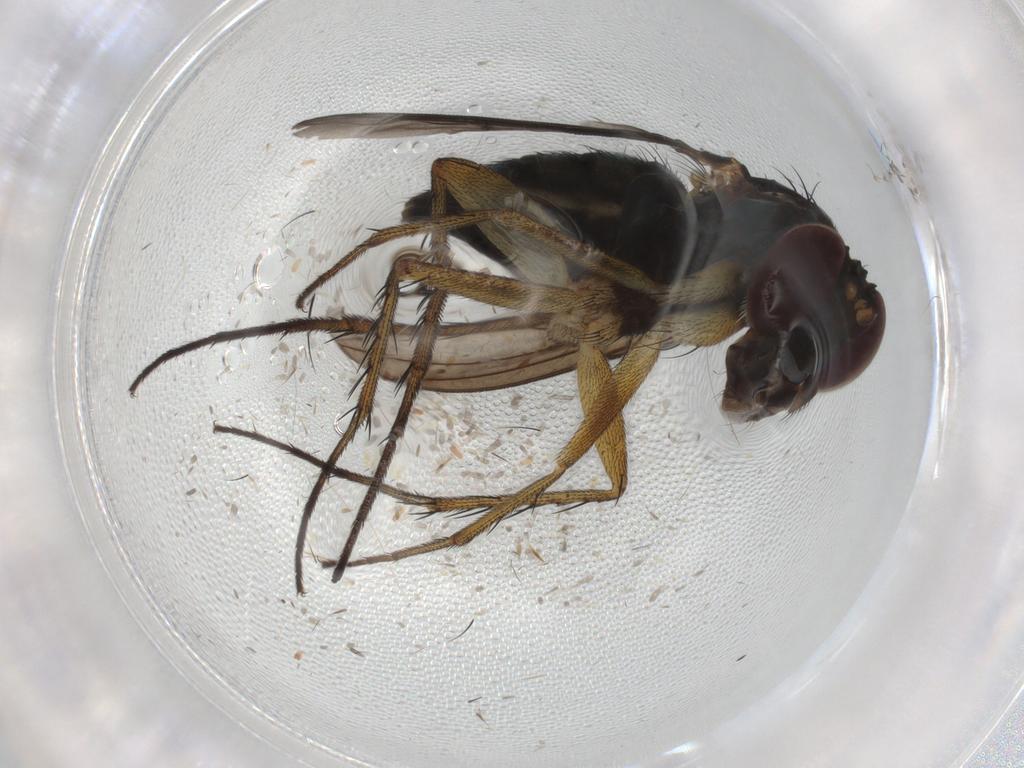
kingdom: Animalia
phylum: Arthropoda
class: Insecta
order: Diptera
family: Dolichopodidae
